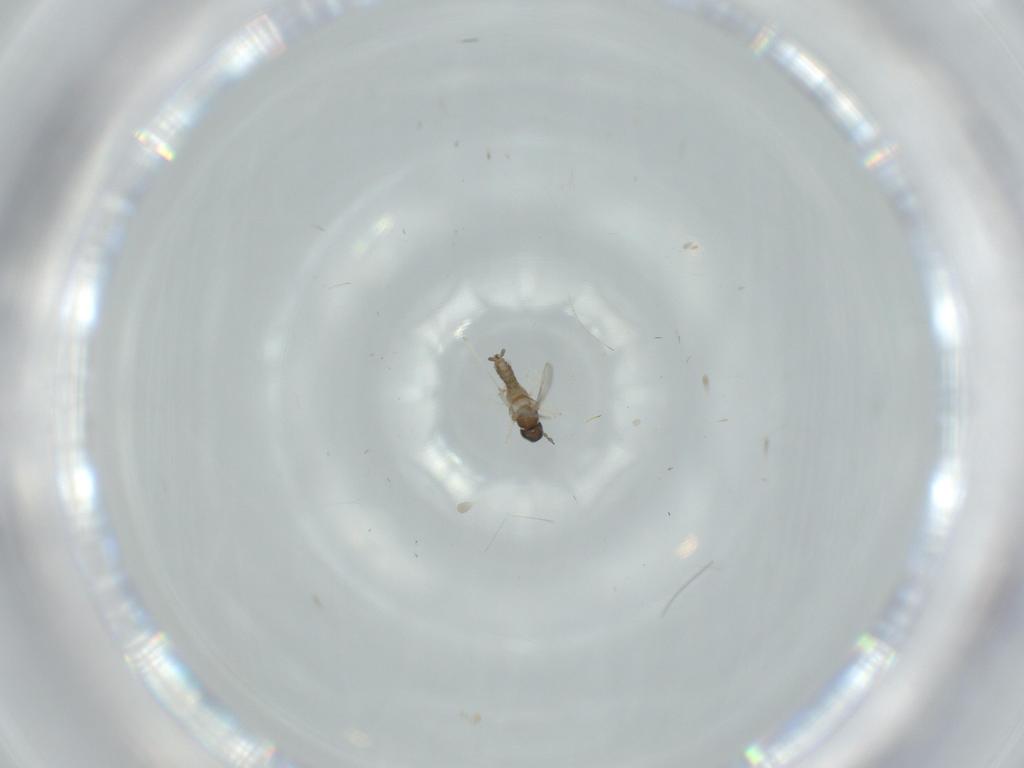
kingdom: Animalia
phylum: Arthropoda
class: Insecta
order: Diptera
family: Cecidomyiidae
